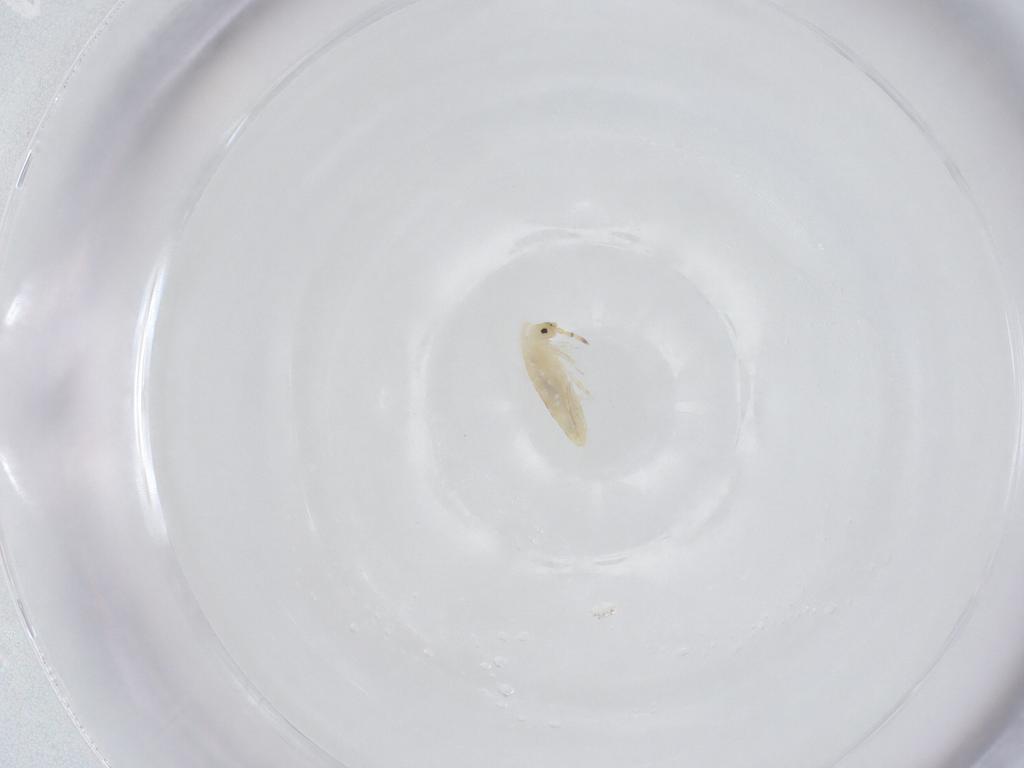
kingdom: Animalia
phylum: Arthropoda
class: Collembola
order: Entomobryomorpha
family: Entomobryidae
